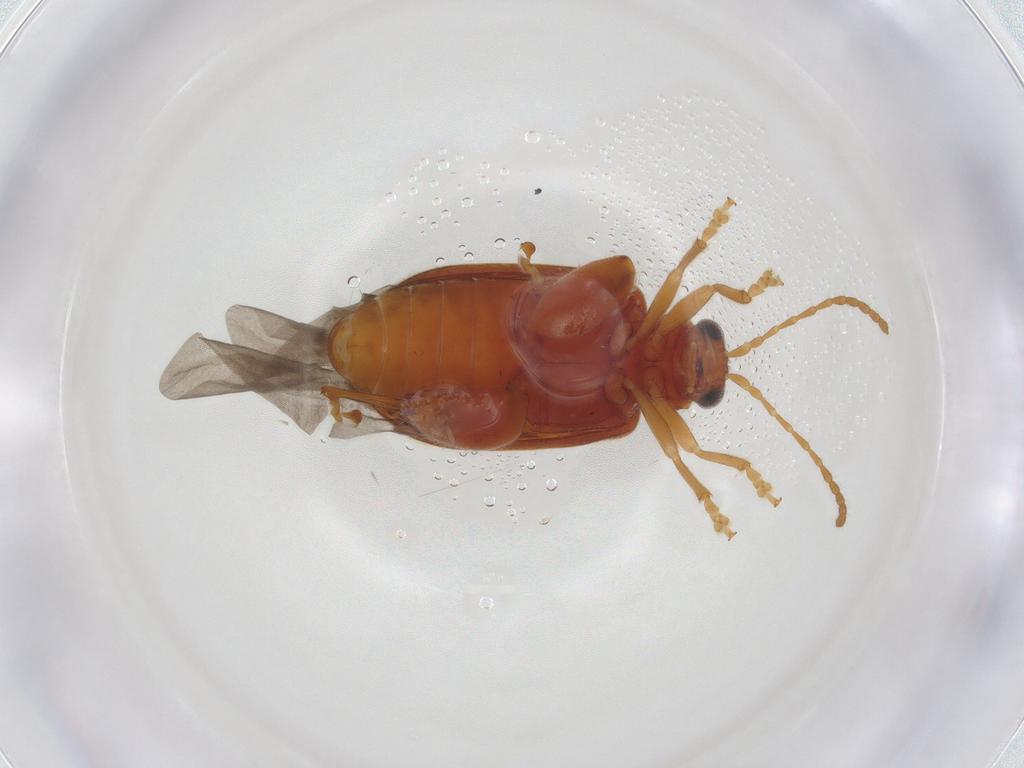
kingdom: Animalia
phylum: Arthropoda
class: Insecta
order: Coleoptera
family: Chrysomelidae
